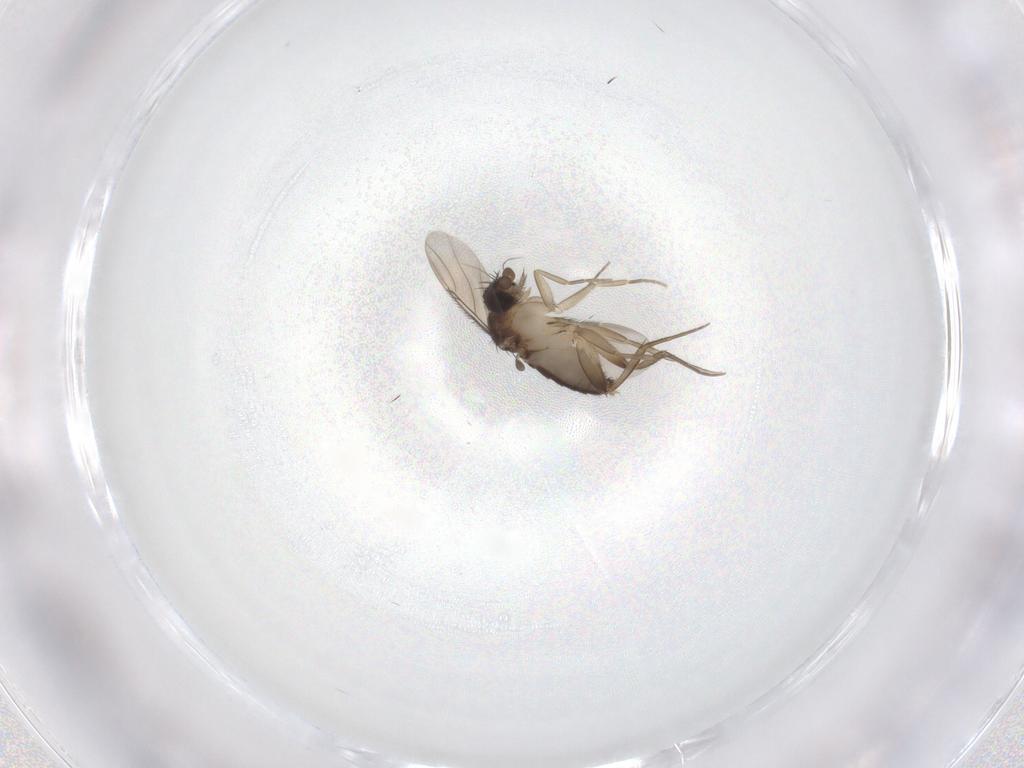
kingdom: Animalia
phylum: Arthropoda
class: Insecta
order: Diptera
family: Phoridae
